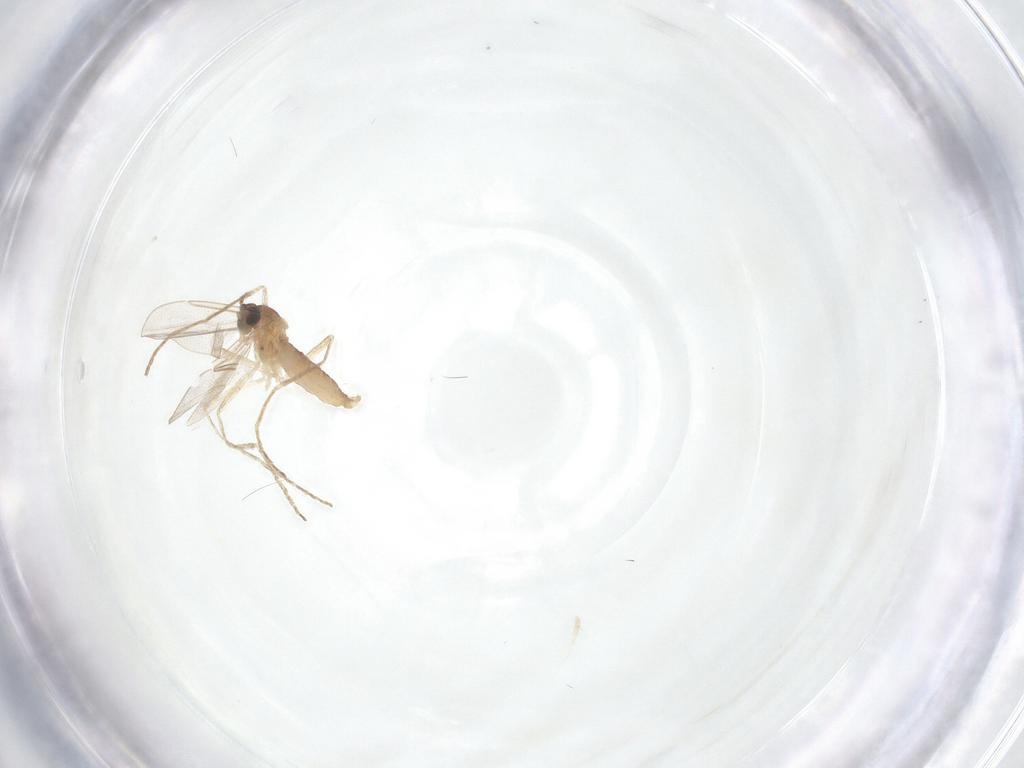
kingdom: Animalia
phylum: Arthropoda
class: Insecta
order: Diptera
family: Cecidomyiidae
